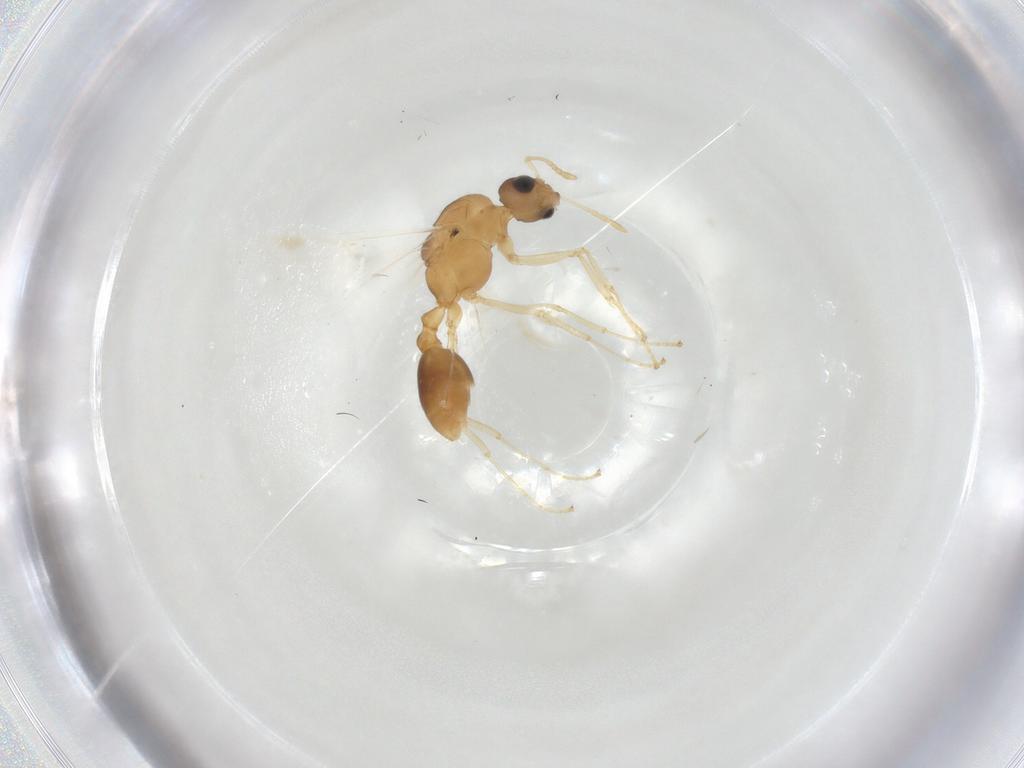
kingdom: Animalia
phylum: Arthropoda
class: Insecta
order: Hymenoptera
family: Formicidae
